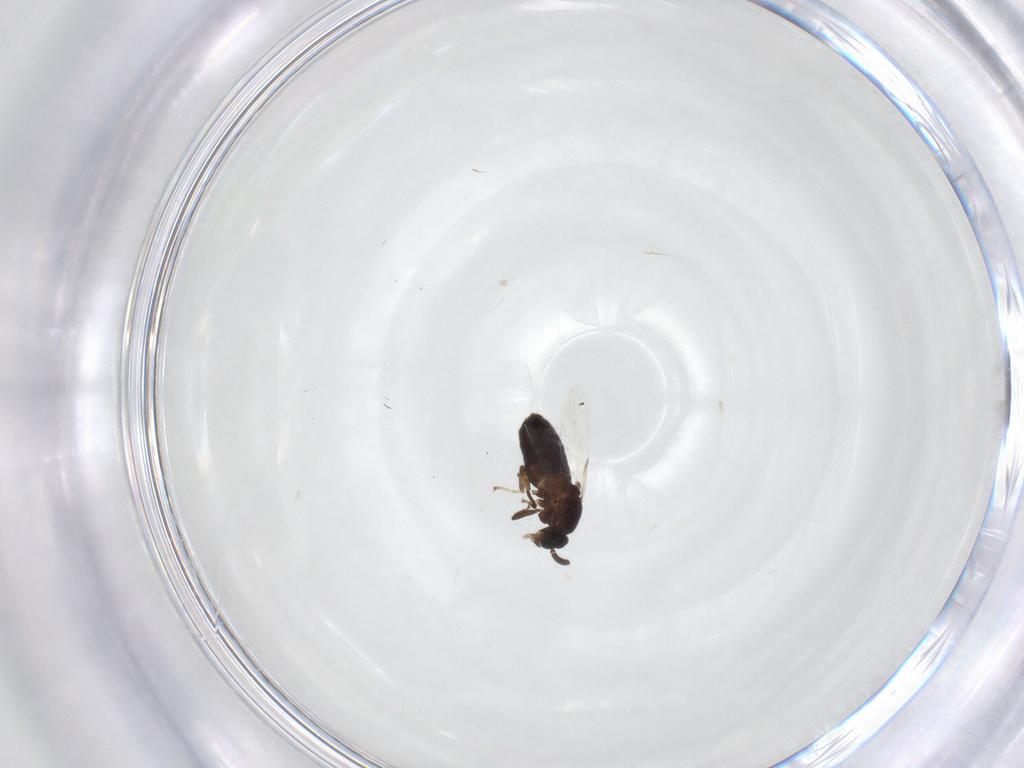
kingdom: Animalia
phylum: Arthropoda
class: Insecta
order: Diptera
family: Scatopsidae
